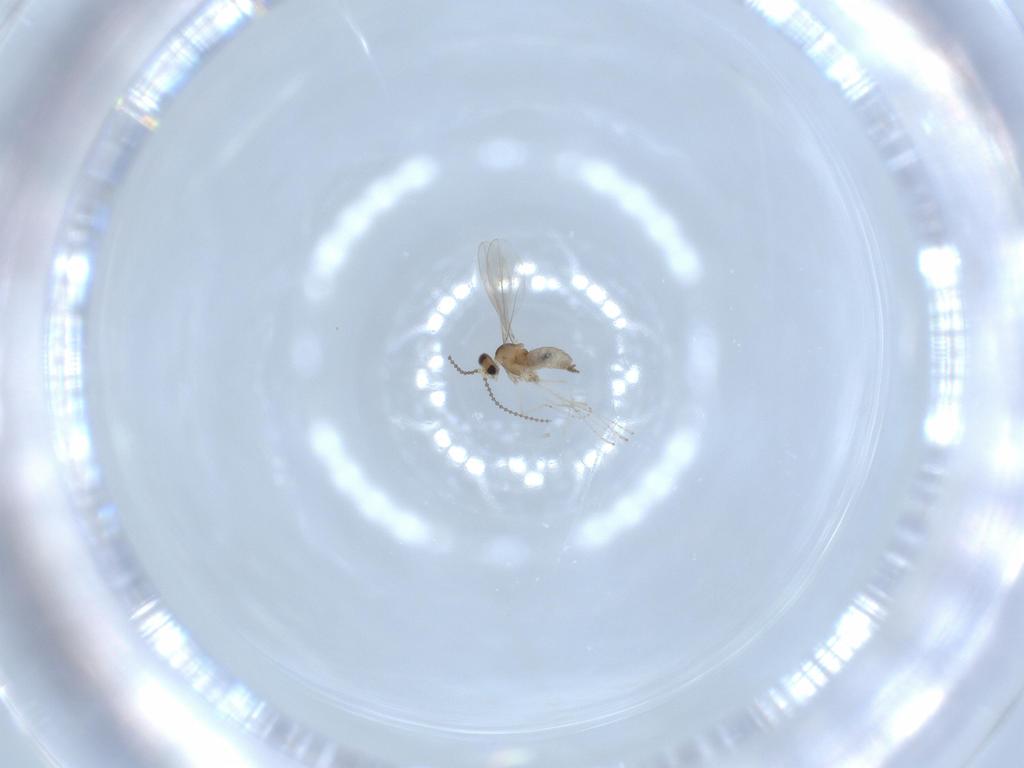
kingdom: Animalia
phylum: Arthropoda
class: Insecta
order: Diptera
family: Cecidomyiidae
